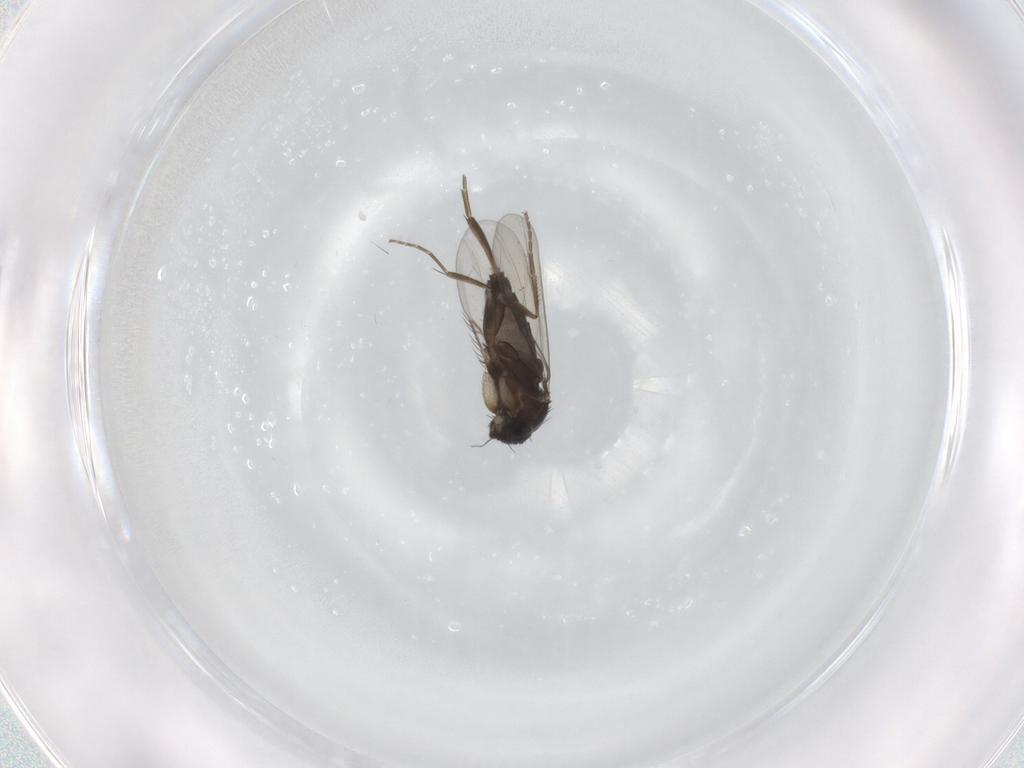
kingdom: Animalia
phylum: Arthropoda
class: Insecta
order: Diptera
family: Phoridae
